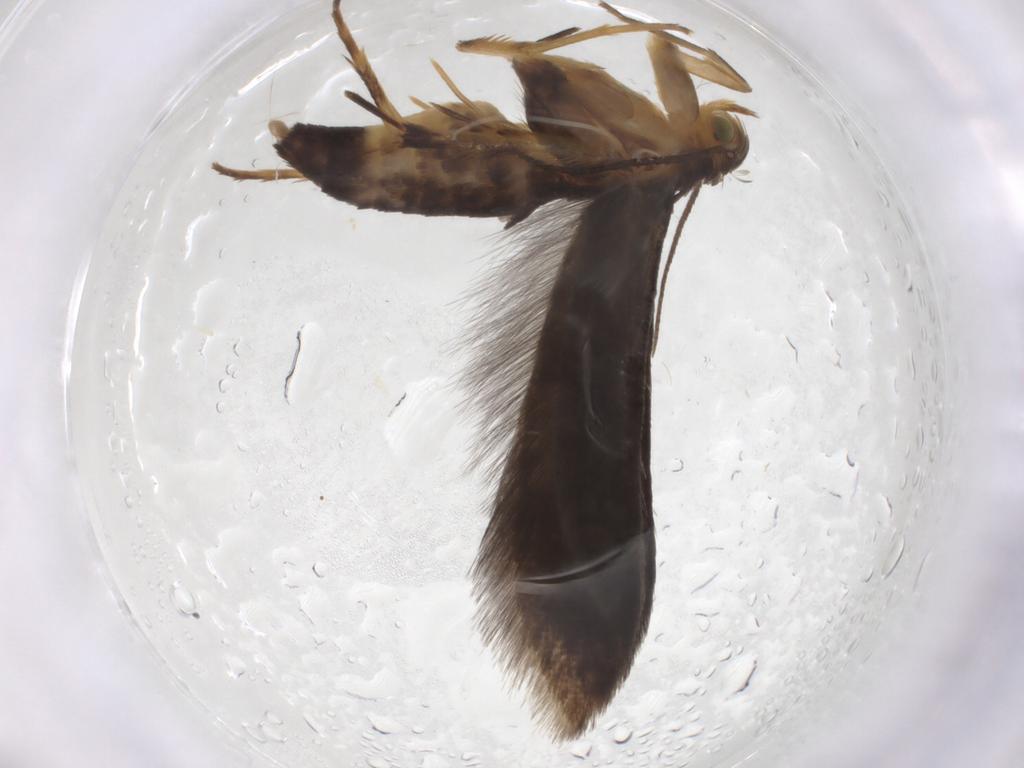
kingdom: Animalia
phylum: Arthropoda
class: Insecta
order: Lepidoptera
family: Oecophoridae
